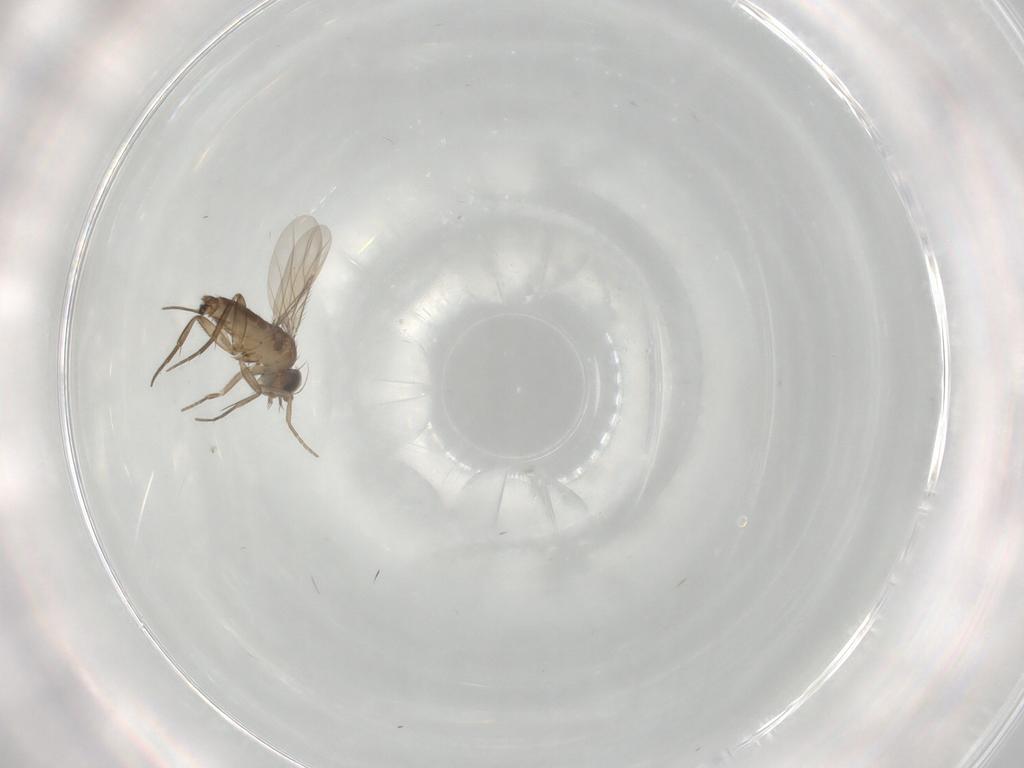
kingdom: Animalia
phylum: Arthropoda
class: Insecta
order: Diptera
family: Phoridae
